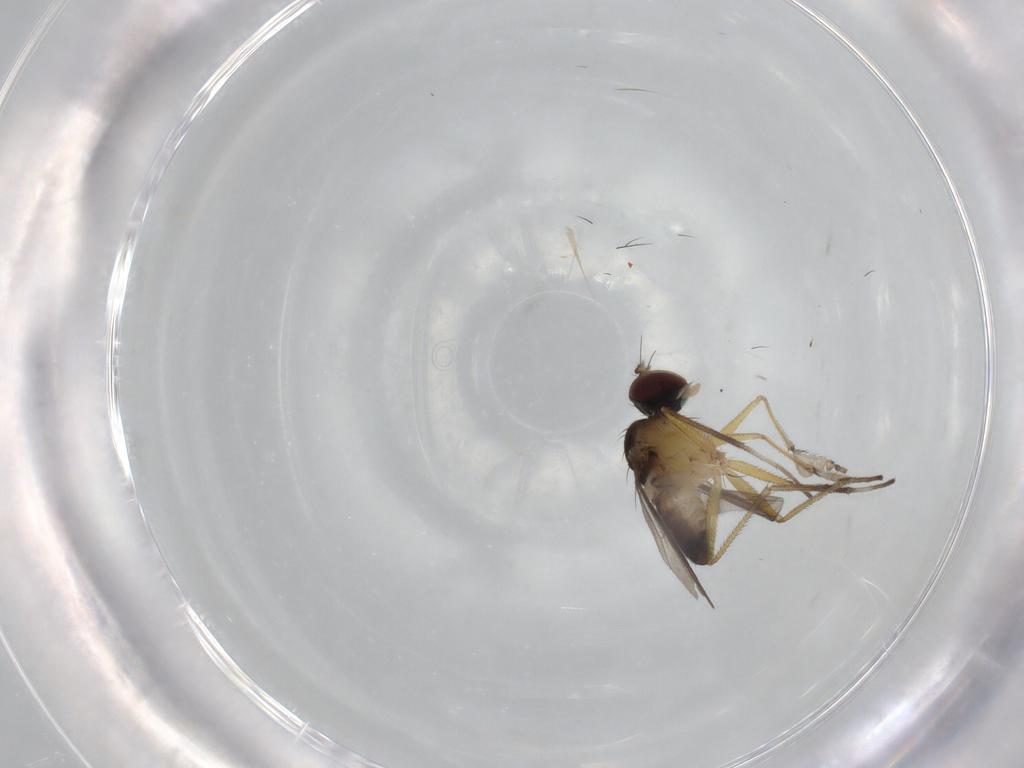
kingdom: Animalia
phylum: Arthropoda
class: Insecta
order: Diptera
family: Dolichopodidae
